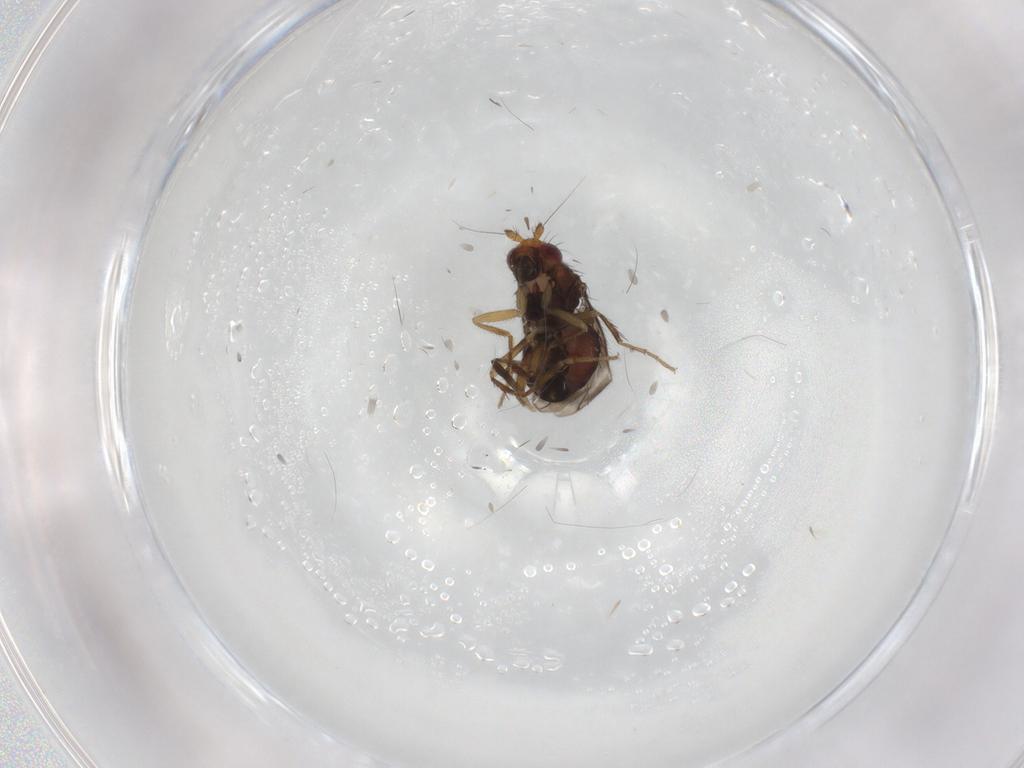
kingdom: Animalia
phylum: Arthropoda
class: Insecta
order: Diptera
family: Sphaeroceridae
